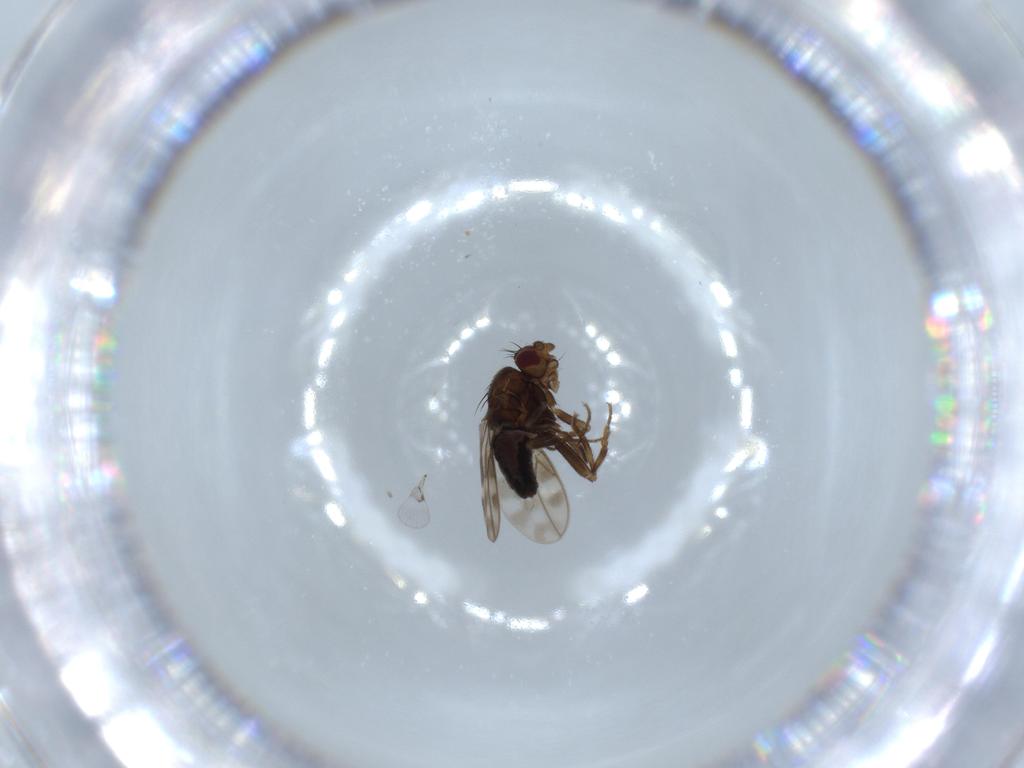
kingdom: Animalia
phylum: Arthropoda
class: Insecta
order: Diptera
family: Sphaeroceridae
